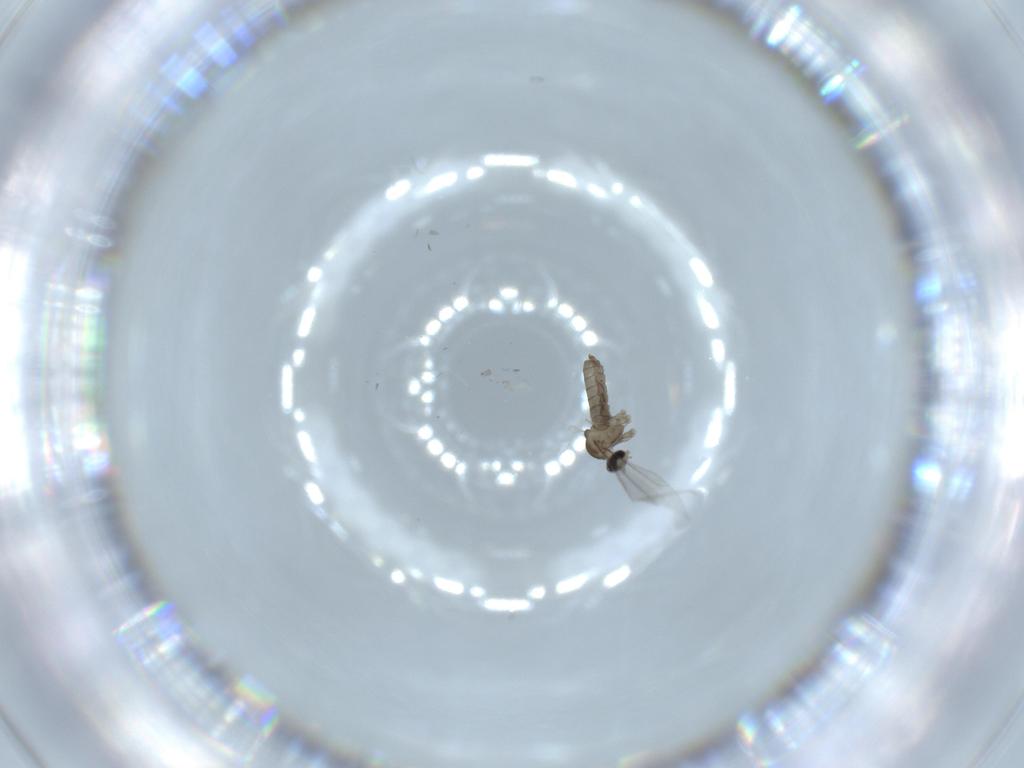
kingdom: Animalia
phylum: Arthropoda
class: Insecta
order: Diptera
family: Cecidomyiidae
